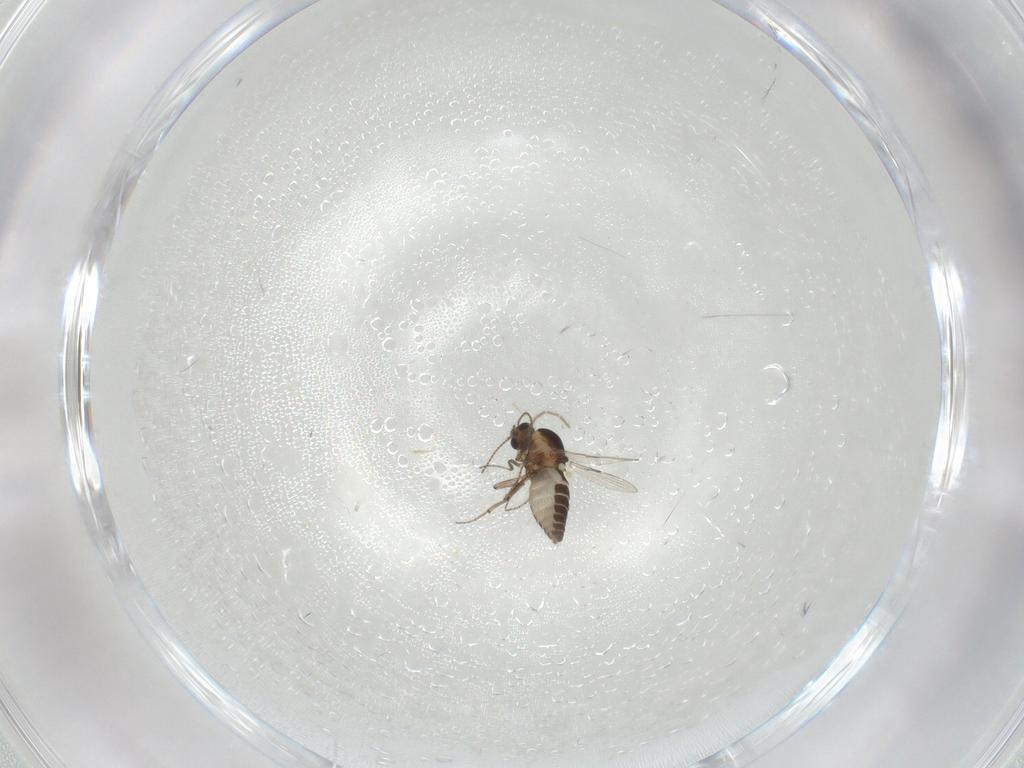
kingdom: Animalia
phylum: Arthropoda
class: Insecta
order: Diptera
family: Ceratopogonidae
